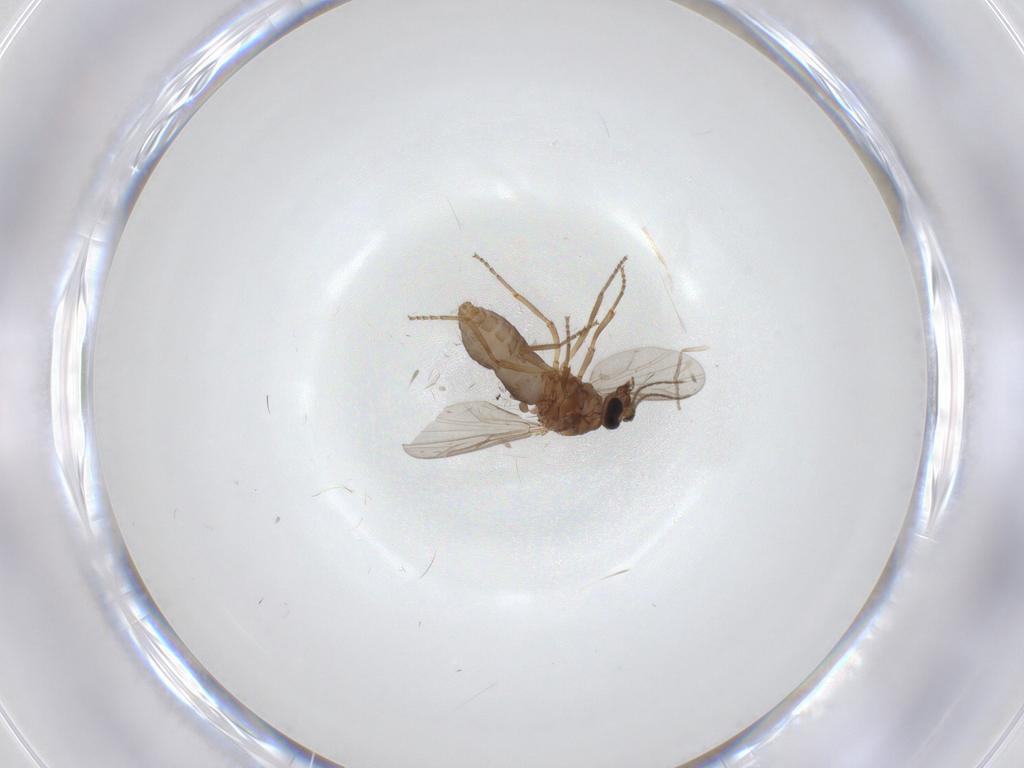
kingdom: Animalia
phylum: Arthropoda
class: Insecta
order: Diptera
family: Ceratopogonidae
